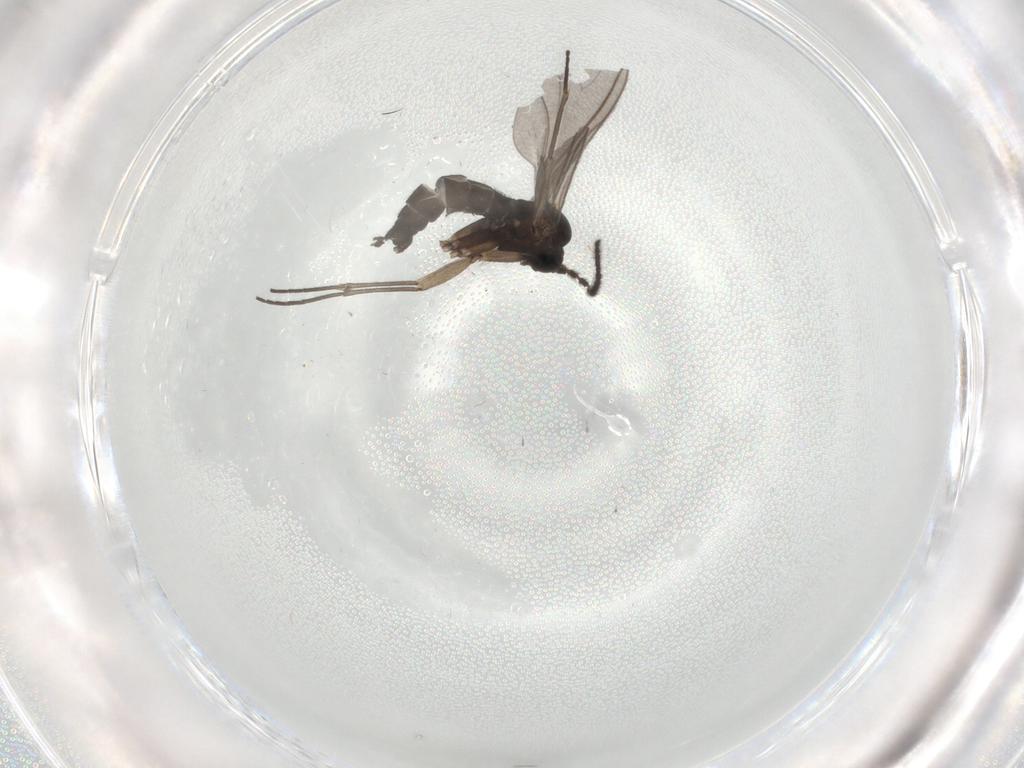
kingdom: Animalia
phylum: Arthropoda
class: Insecta
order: Diptera
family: Sciaridae
